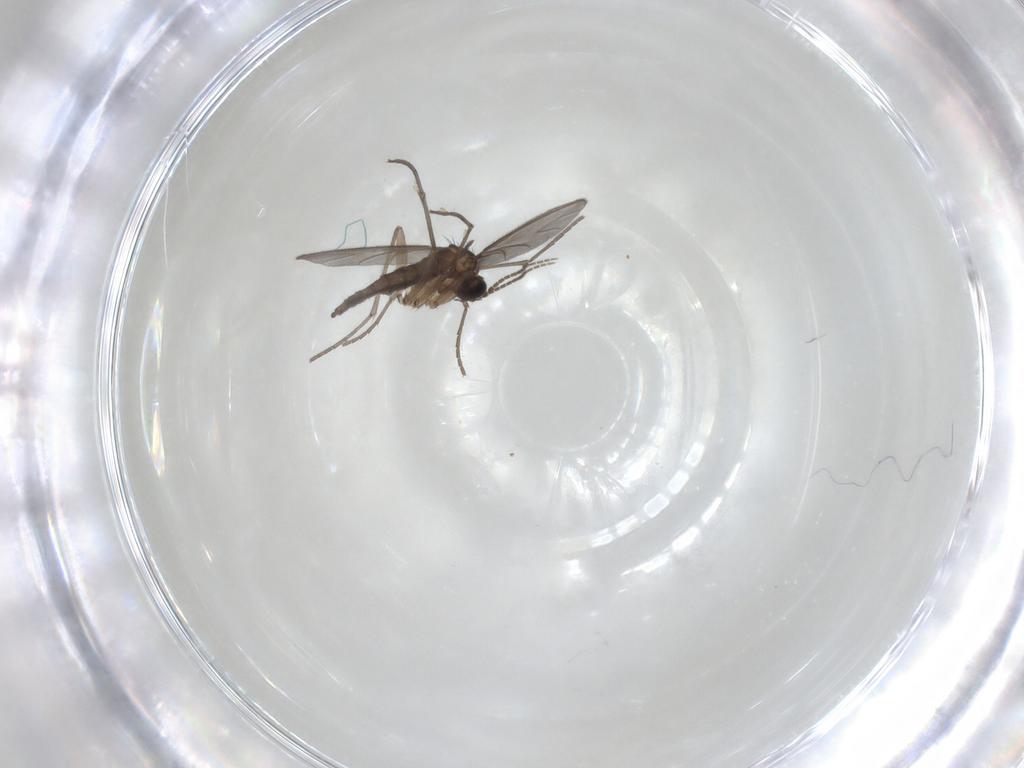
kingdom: Animalia
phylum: Arthropoda
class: Insecta
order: Diptera
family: Sciaridae
